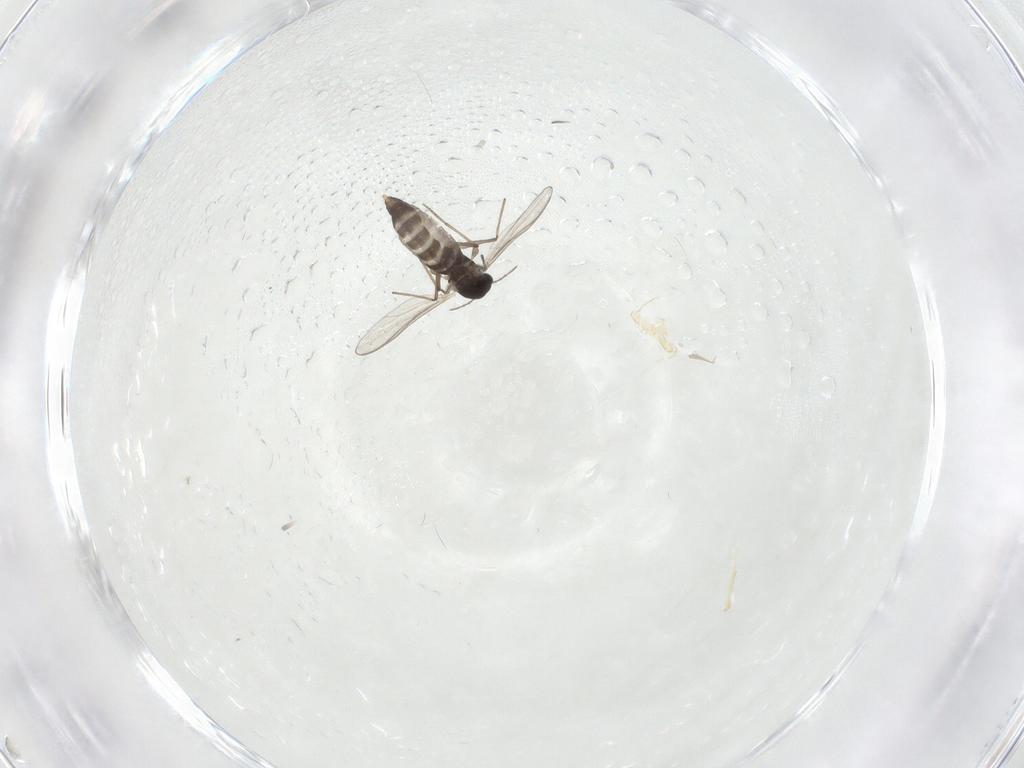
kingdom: Animalia
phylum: Arthropoda
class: Insecta
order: Diptera
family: Chironomidae
